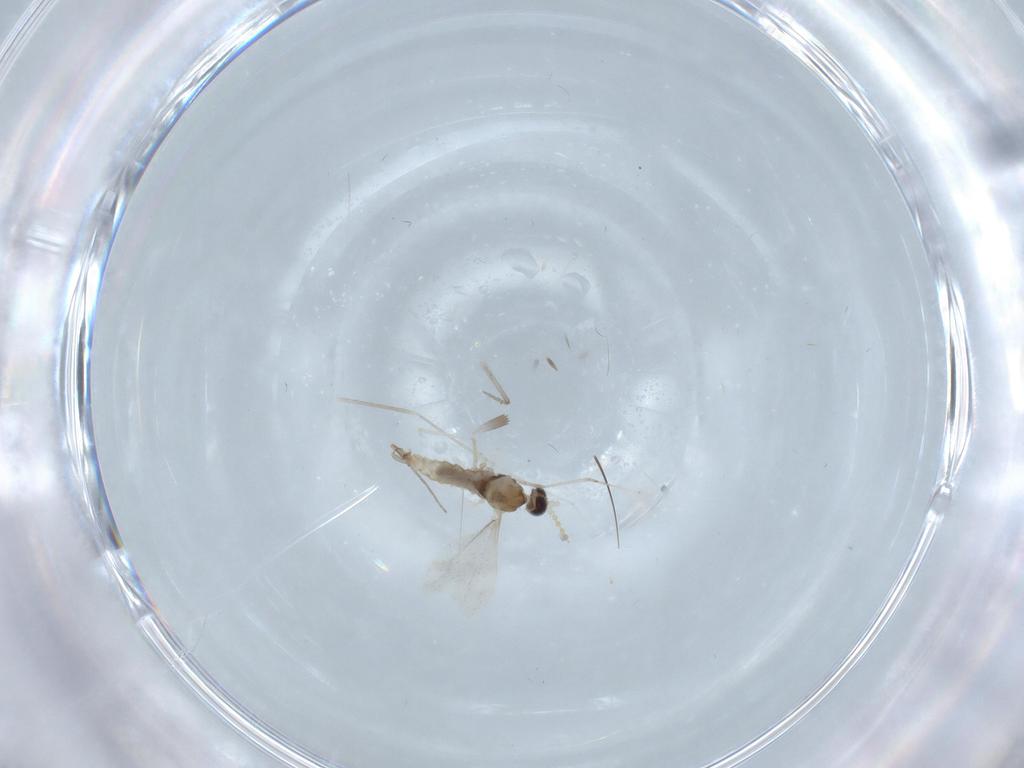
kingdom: Animalia
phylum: Arthropoda
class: Insecta
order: Diptera
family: Cecidomyiidae
